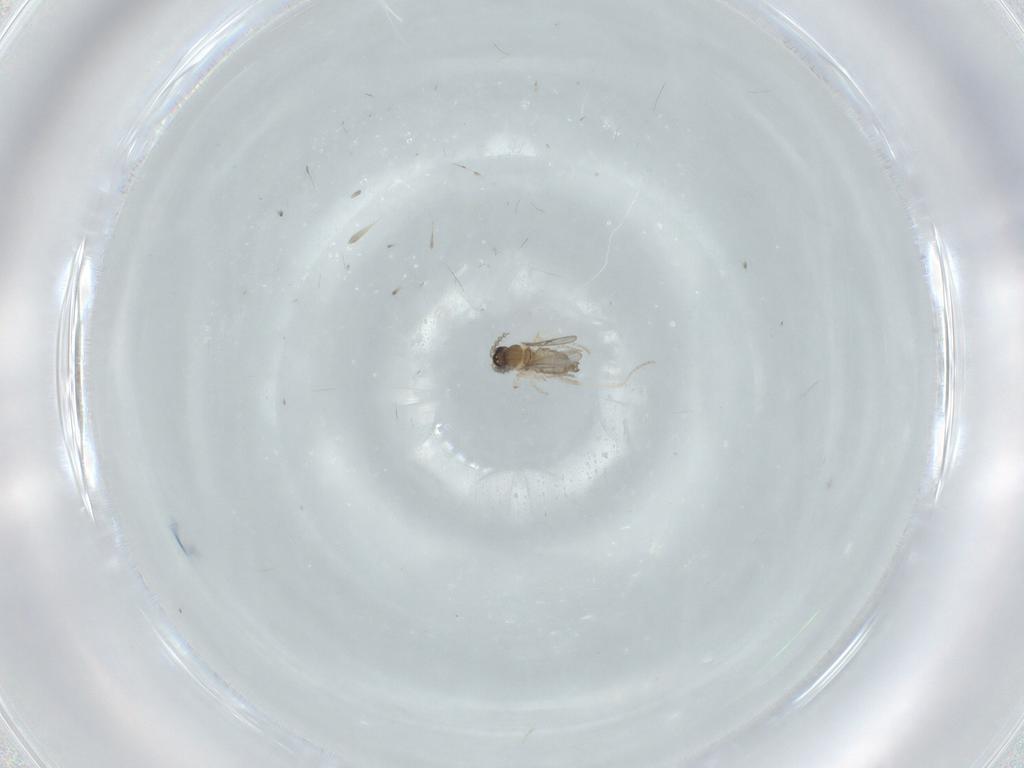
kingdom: Animalia
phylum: Arthropoda
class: Insecta
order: Diptera
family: Cecidomyiidae
